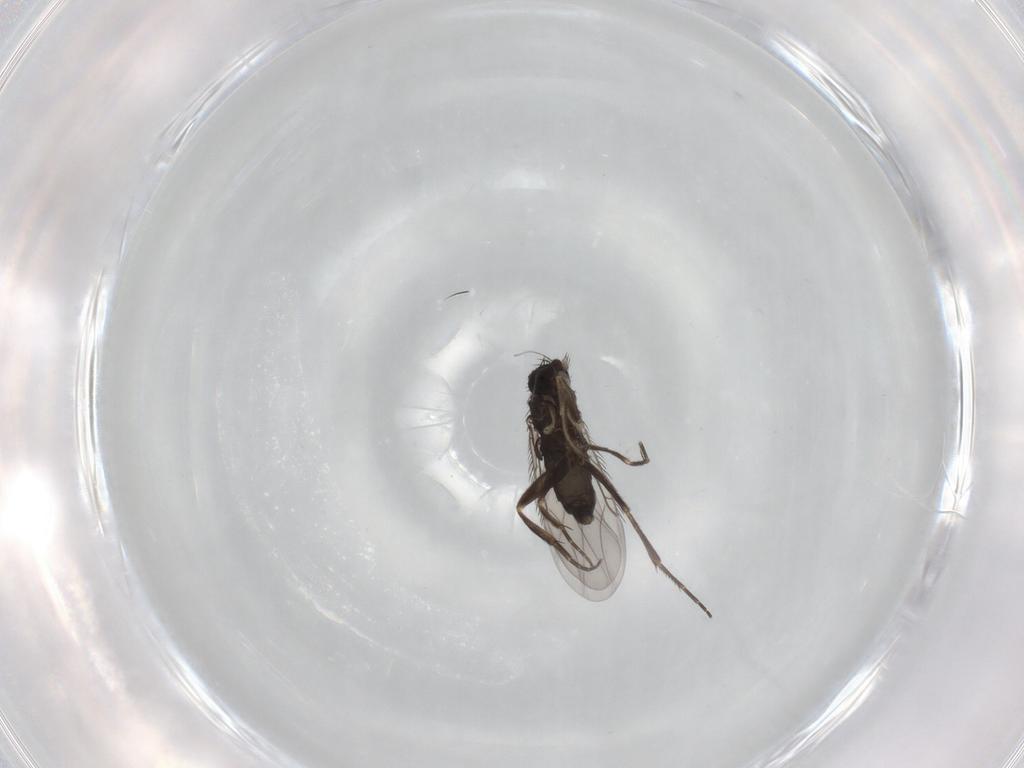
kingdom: Animalia
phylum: Arthropoda
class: Insecta
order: Diptera
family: Phoridae
